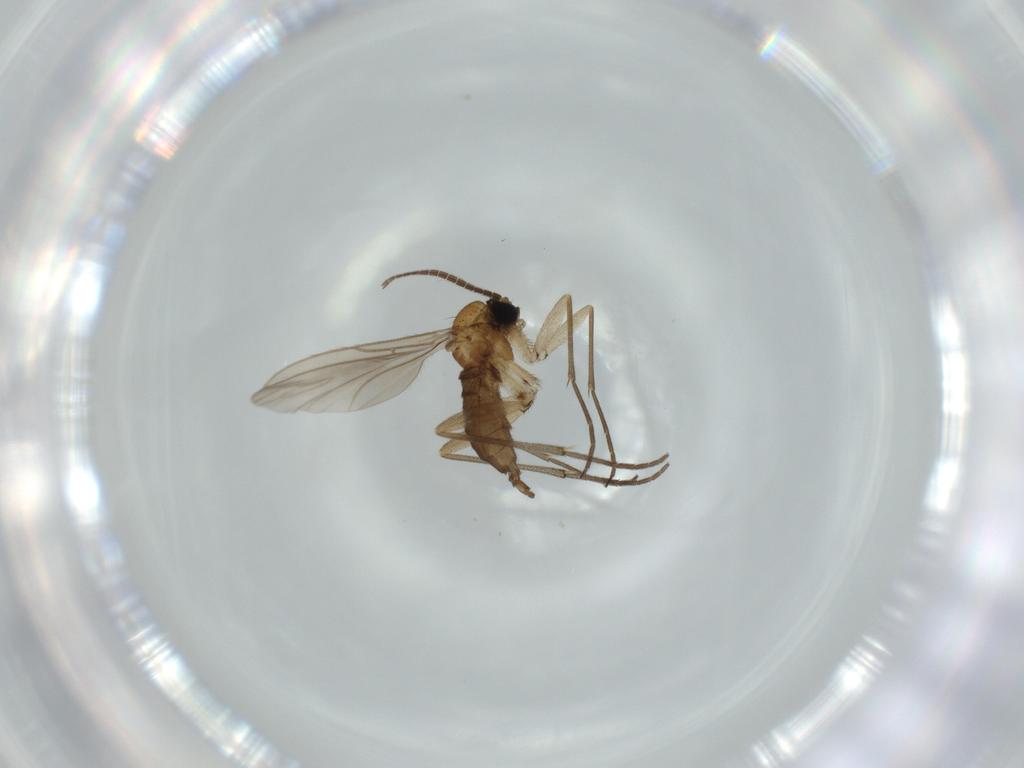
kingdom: Animalia
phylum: Arthropoda
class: Insecta
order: Diptera
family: Sciaridae
